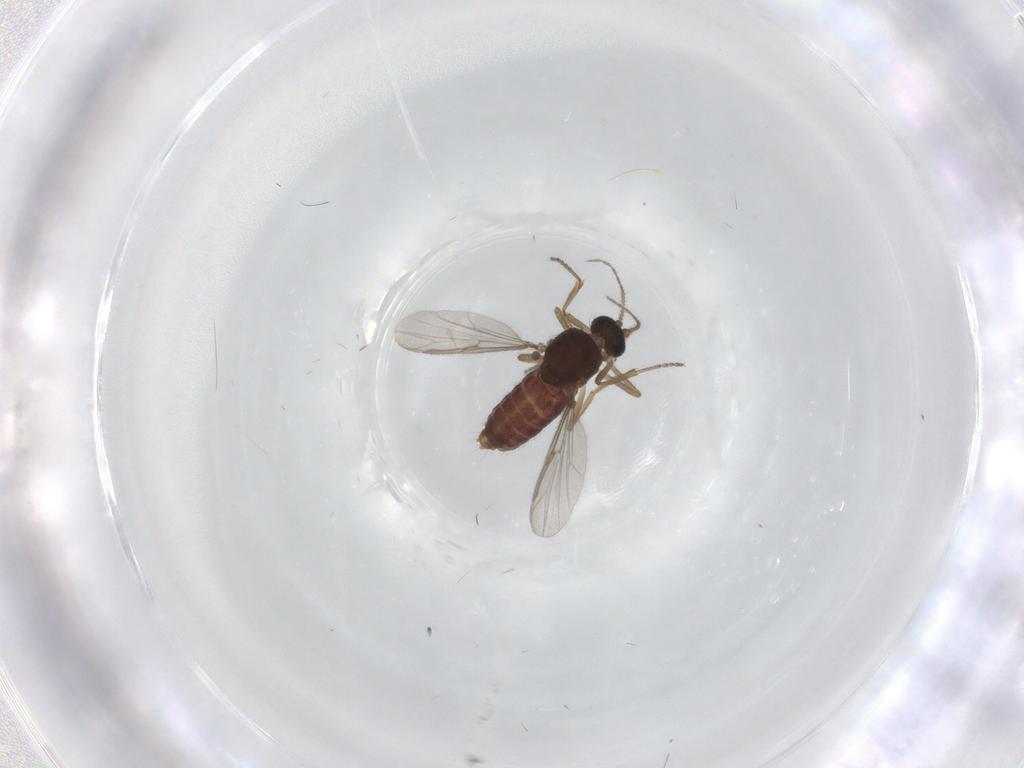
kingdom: Animalia
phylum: Arthropoda
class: Insecta
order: Diptera
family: Ceratopogonidae
